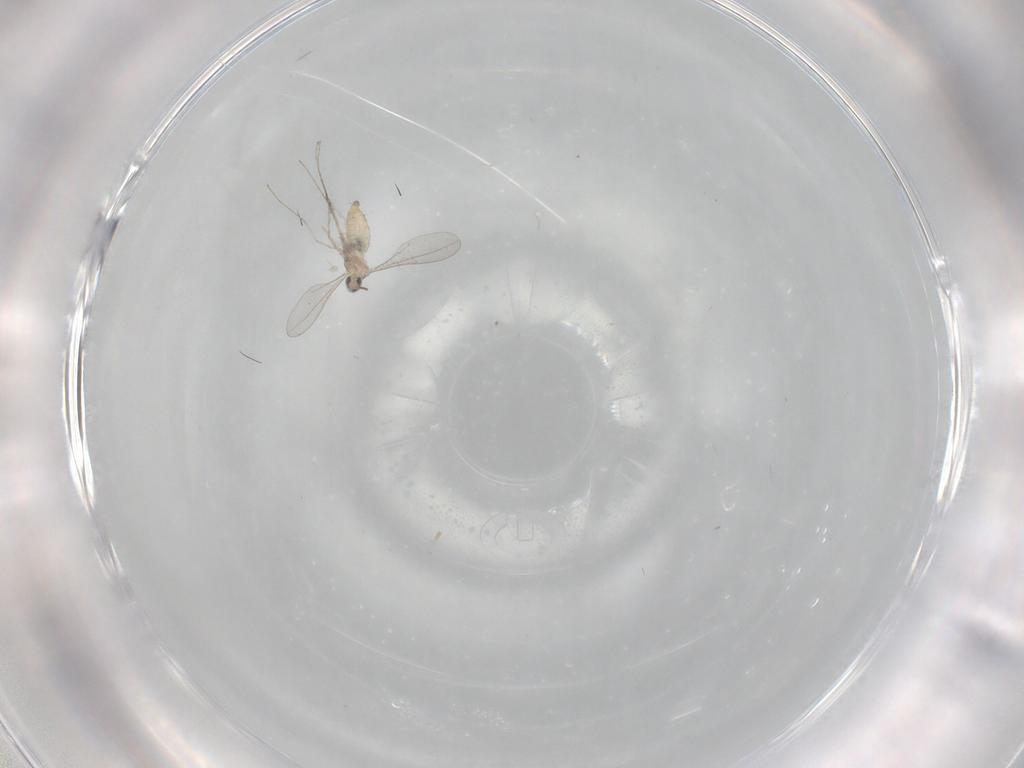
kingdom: Animalia
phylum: Arthropoda
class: Insecta
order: Diptera
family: Cecidomyiidae
